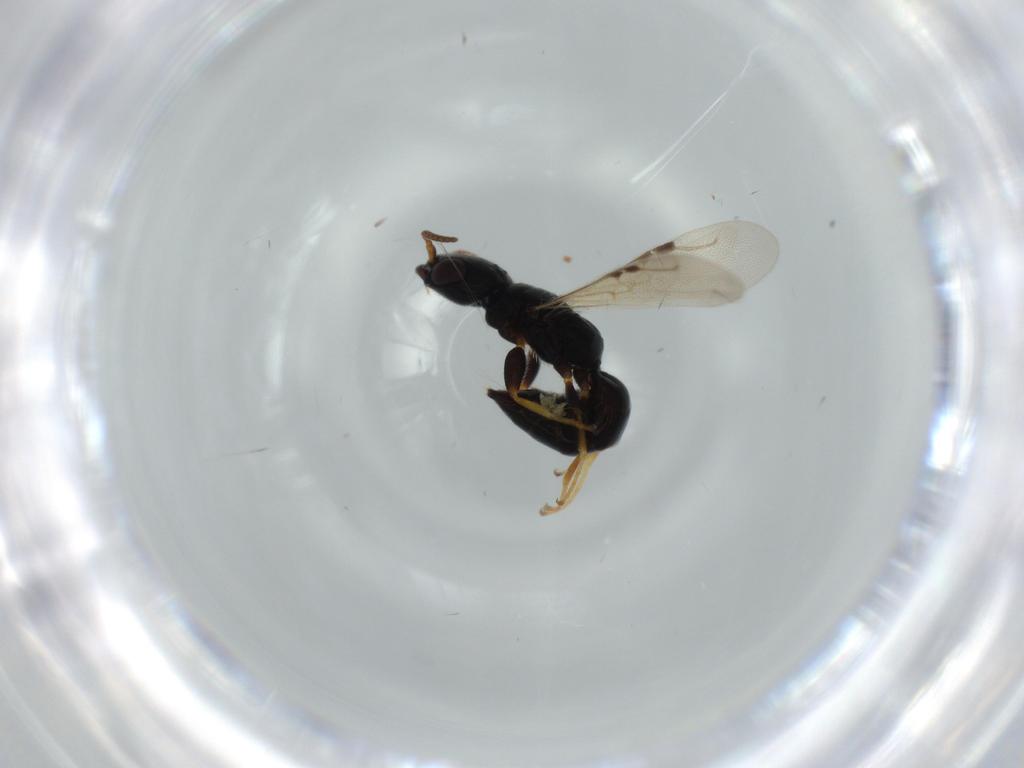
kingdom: Animalia
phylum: Arthropoda
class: Insecta
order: Hymenoptera
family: Bethylidae
